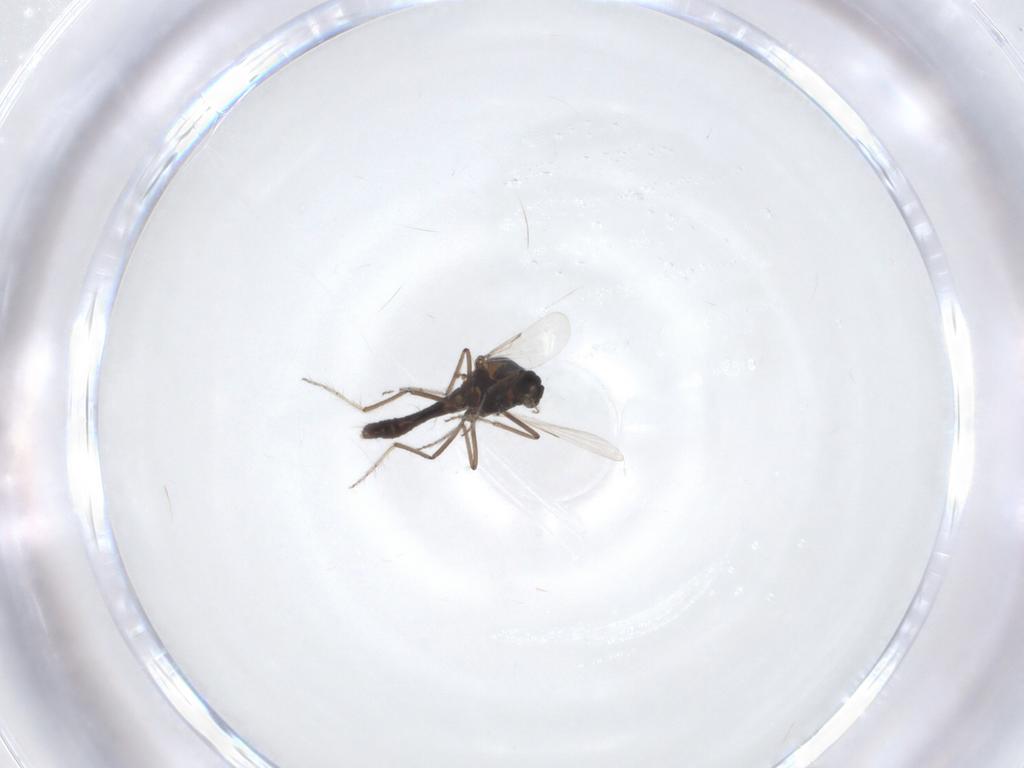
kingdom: Animalia
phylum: Arthropoda
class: Insecta
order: Diptera
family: Ceratopogonidae
